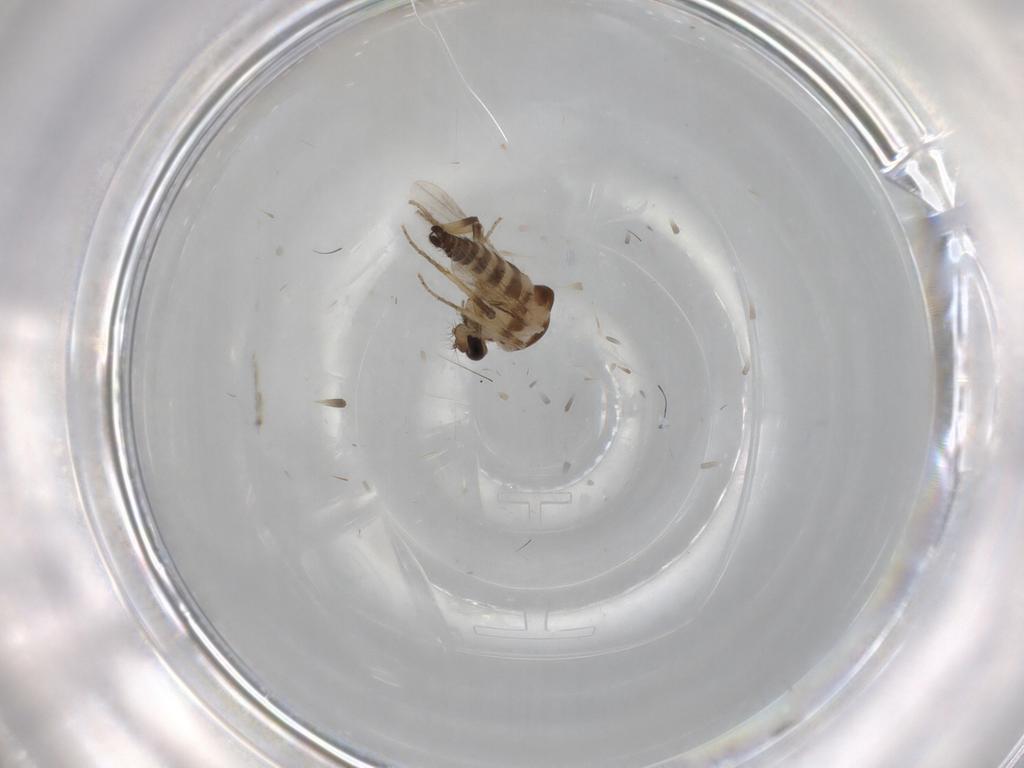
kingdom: Animalia
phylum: Arthropoda
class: Insecta
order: Diptera
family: Ceratopogonidae
